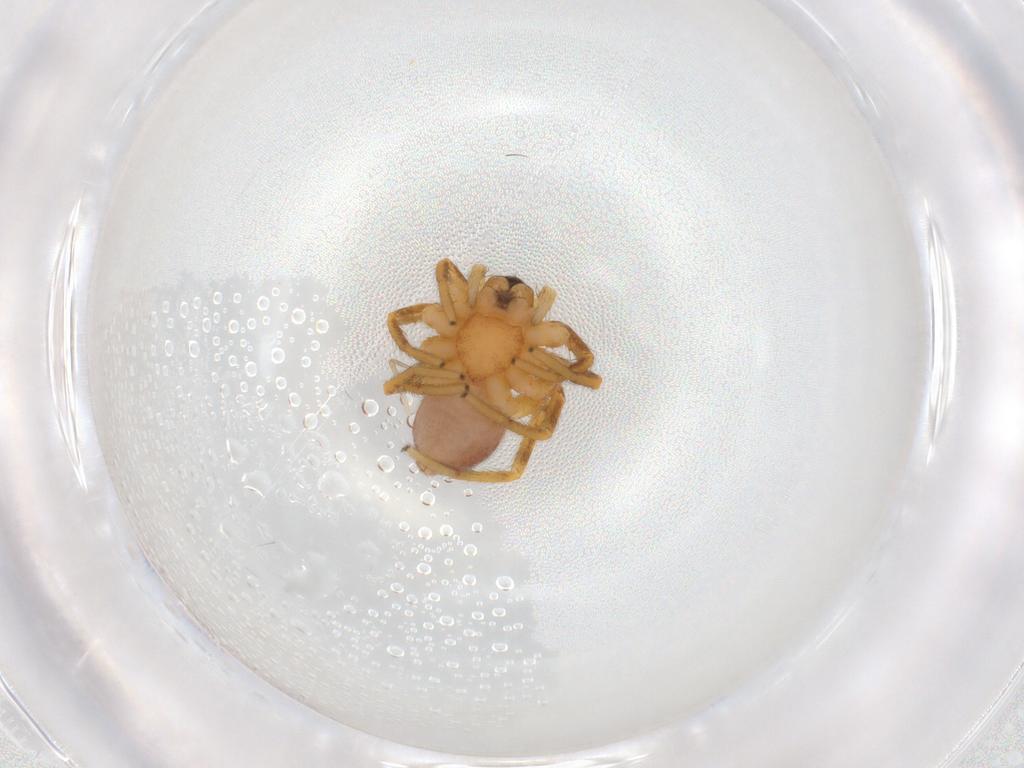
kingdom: Animalia
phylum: Arthropoda
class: Arachnida
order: Araneae
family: Corinnidae
